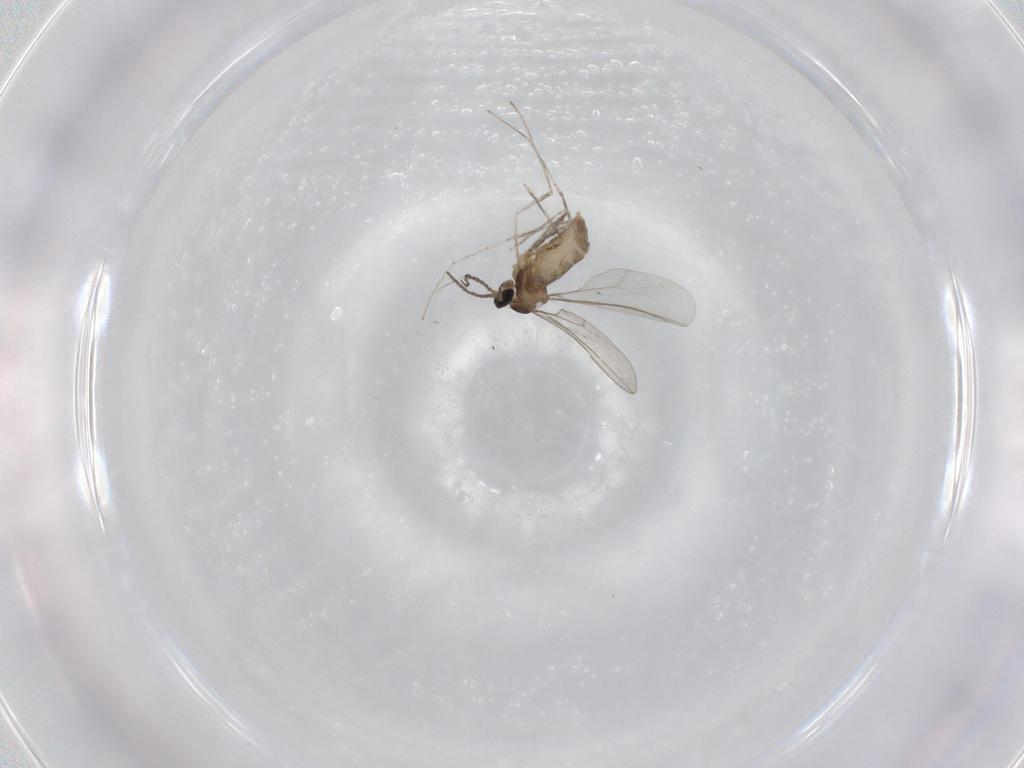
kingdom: Animalia
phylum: Arthropoda
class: Insecta
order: Diptera
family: Cecidomyiidae
